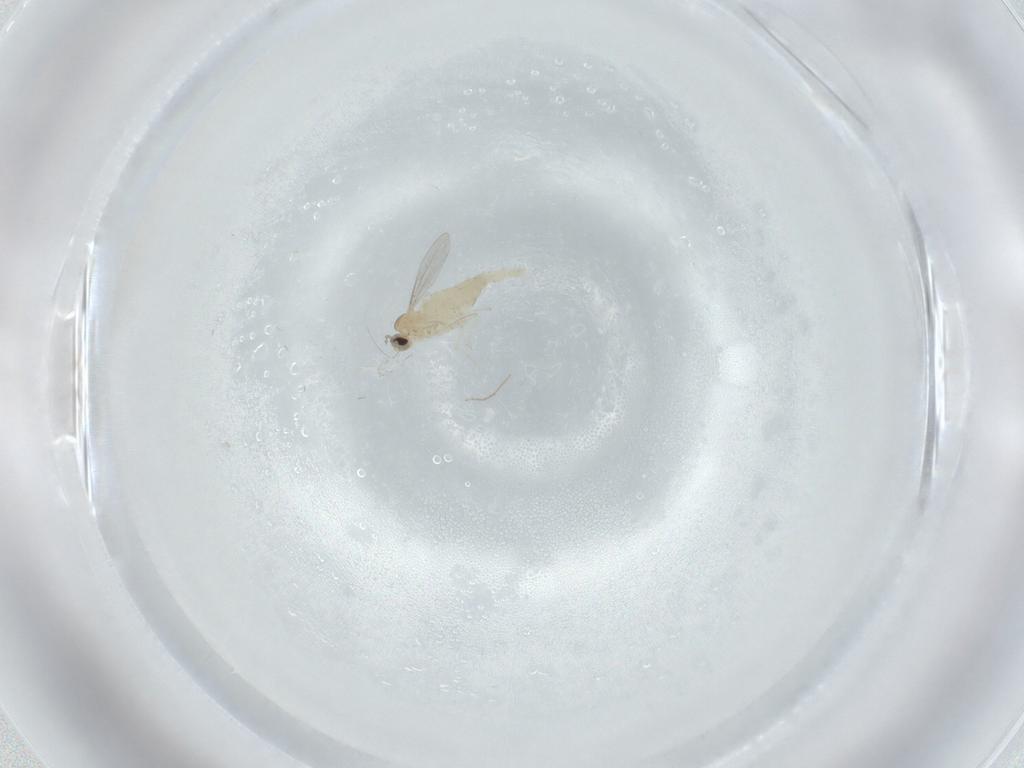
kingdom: Animalia
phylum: Arthropoda
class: Insecta
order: Diptera
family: Cecidomyiidae
